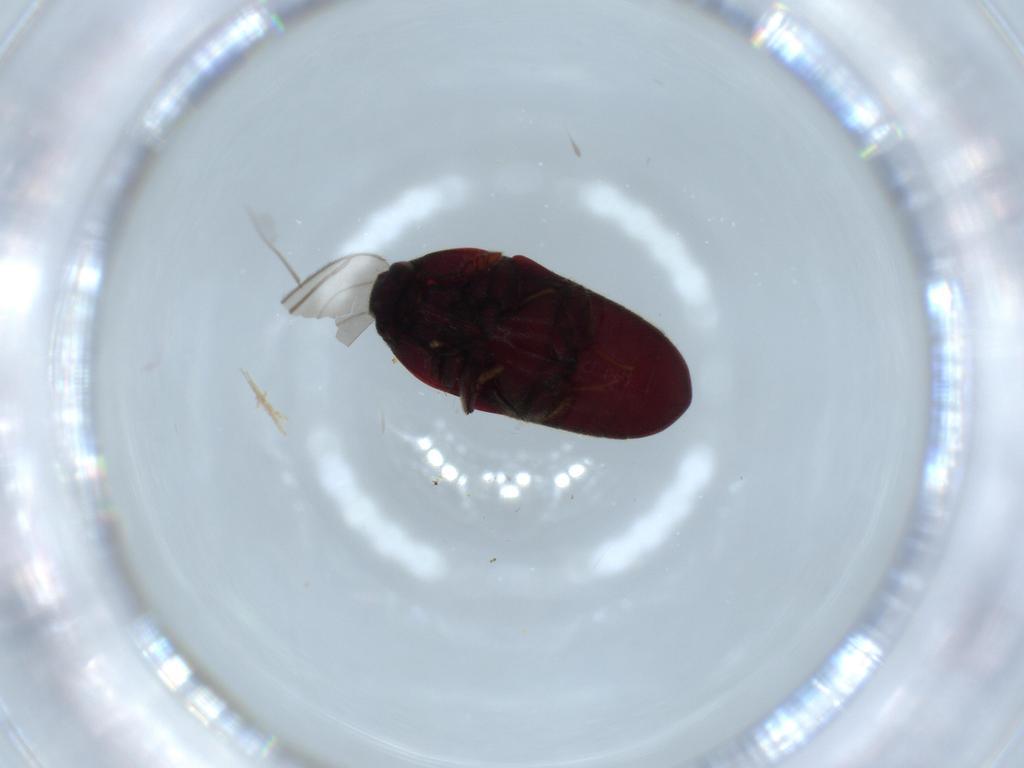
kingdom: Animalia
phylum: Arthropoda
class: Insecta
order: Coleoptera
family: Throscidae
